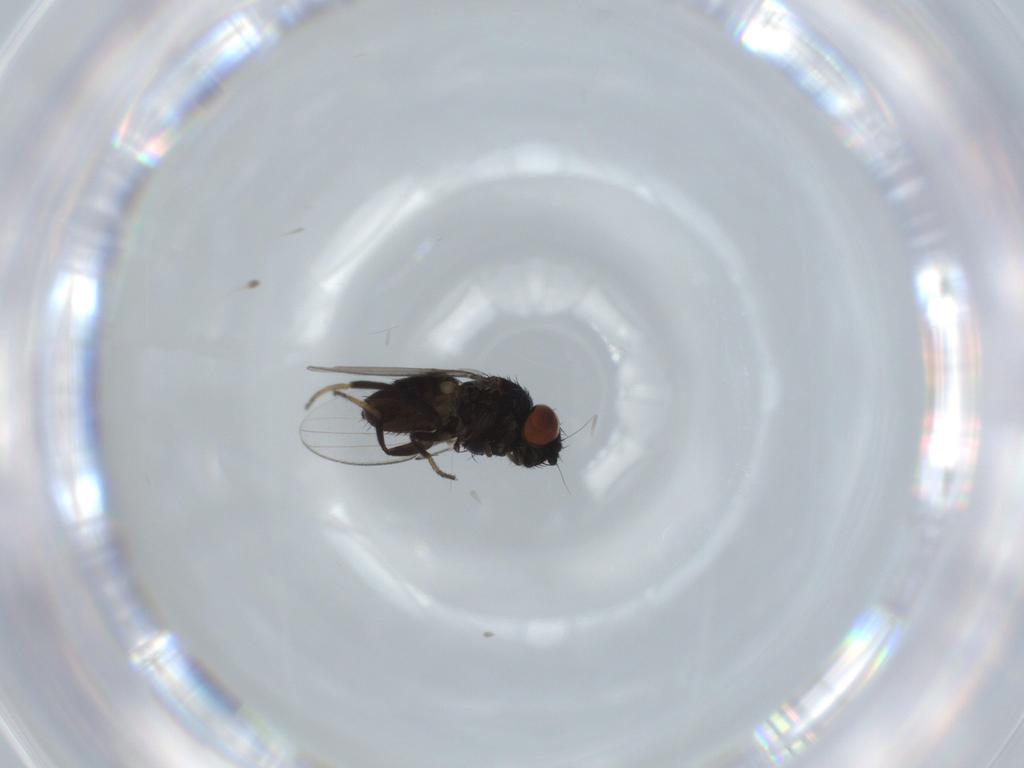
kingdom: Animalia
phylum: Arthropoda
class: Insecta
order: Diptera
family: Milichiidae
